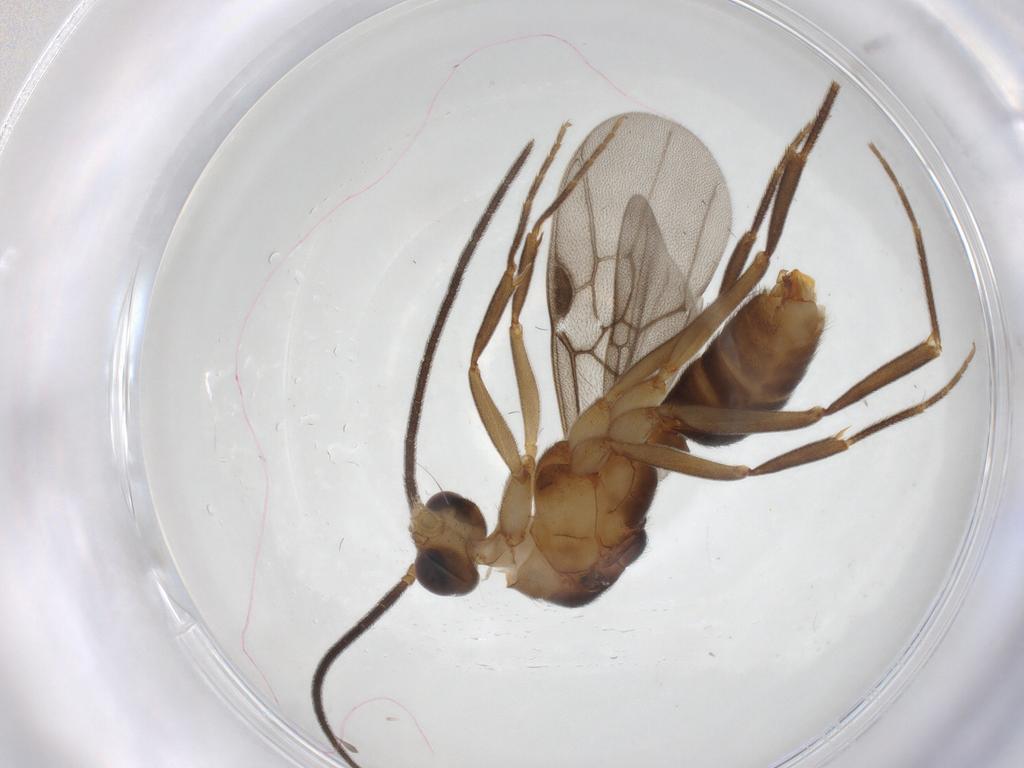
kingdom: Animalia
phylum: Arthropoda
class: Insecta
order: Hymenoptera
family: Formicidae
